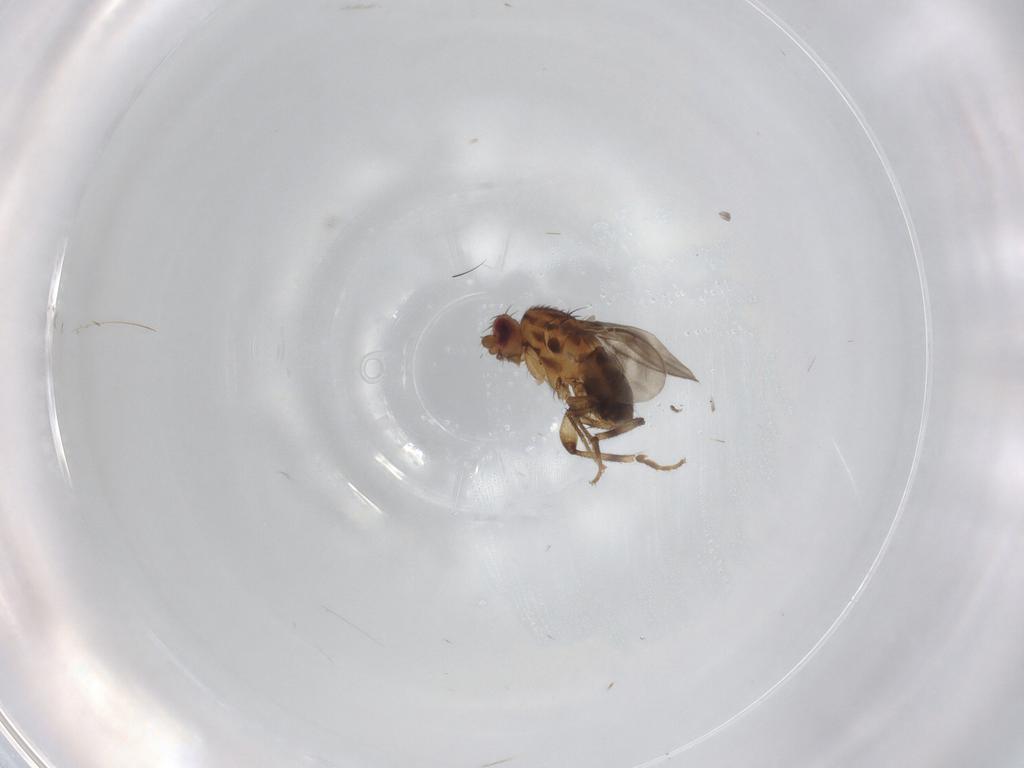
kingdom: Animalia
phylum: Arthropoda
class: Insecta
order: Diptera
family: Sphaeroceridae
